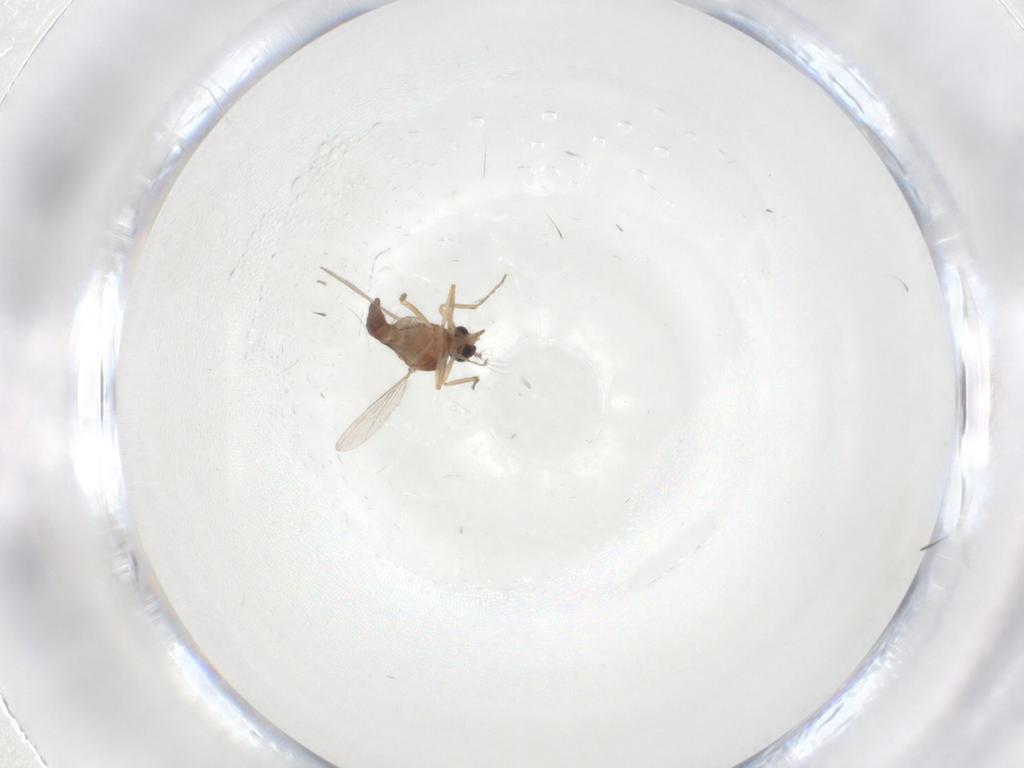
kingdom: Animalia
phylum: Arthropoda
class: Insecta
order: Diptera
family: Ceratopogonidae
